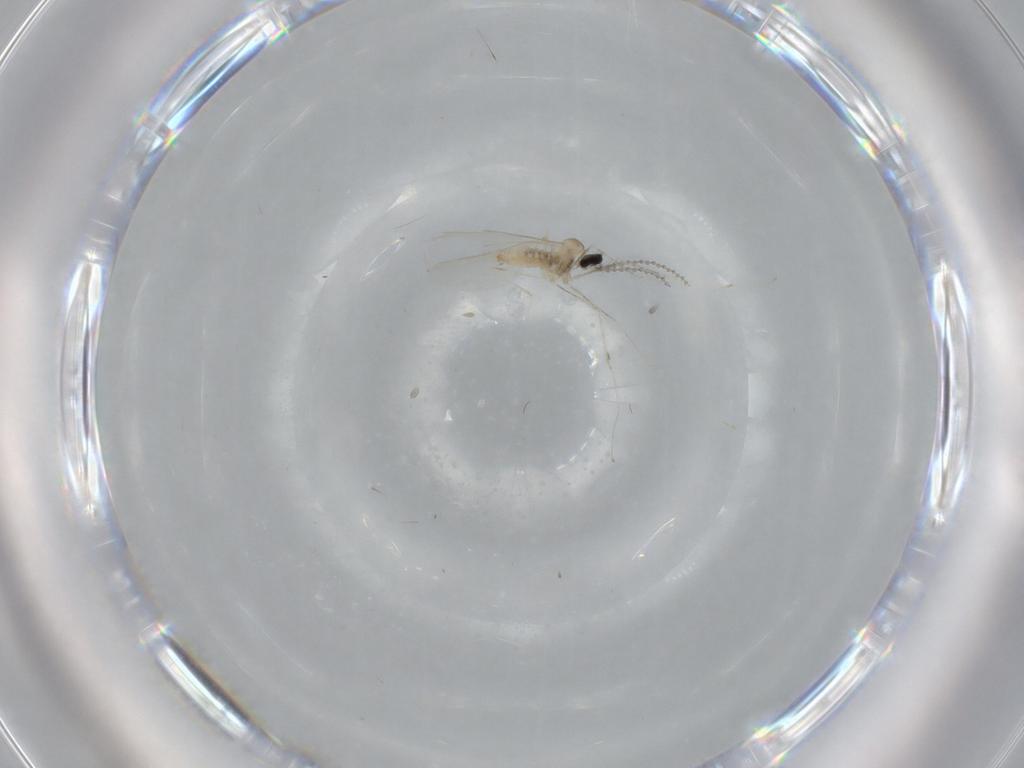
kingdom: Animalia
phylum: Arthropoda
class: Insecta
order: Diptera
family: Cecidomyiidae
